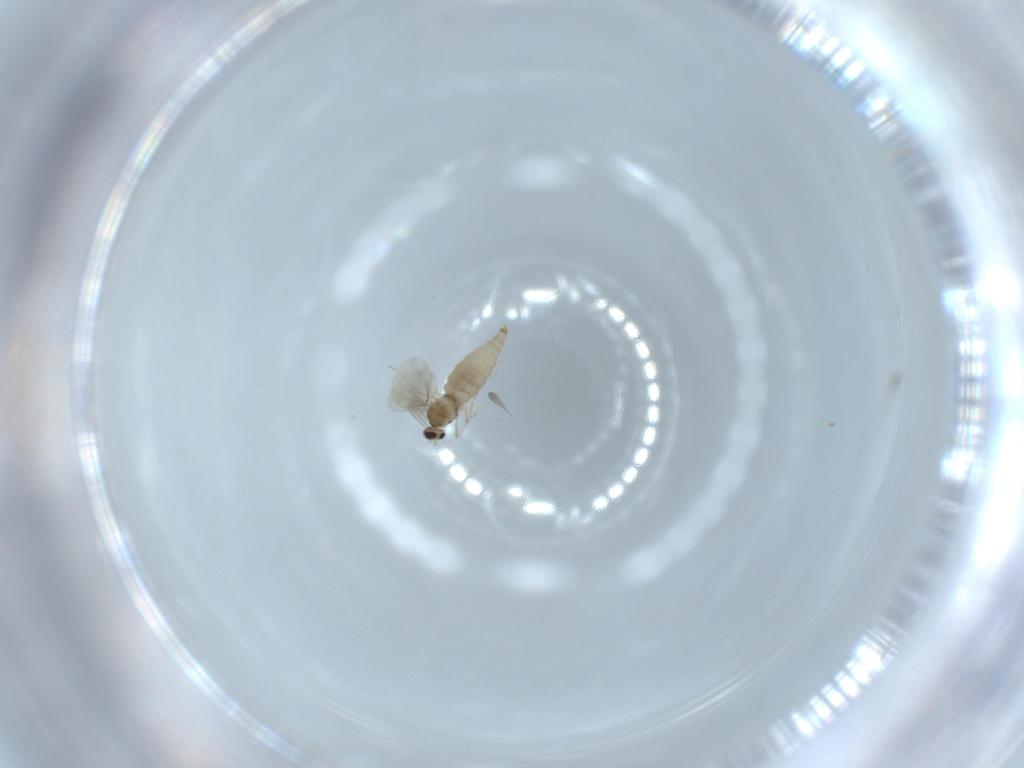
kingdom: Animalia
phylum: Arthropoda
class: Insecta
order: Diptera
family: Cecidomyiidae
